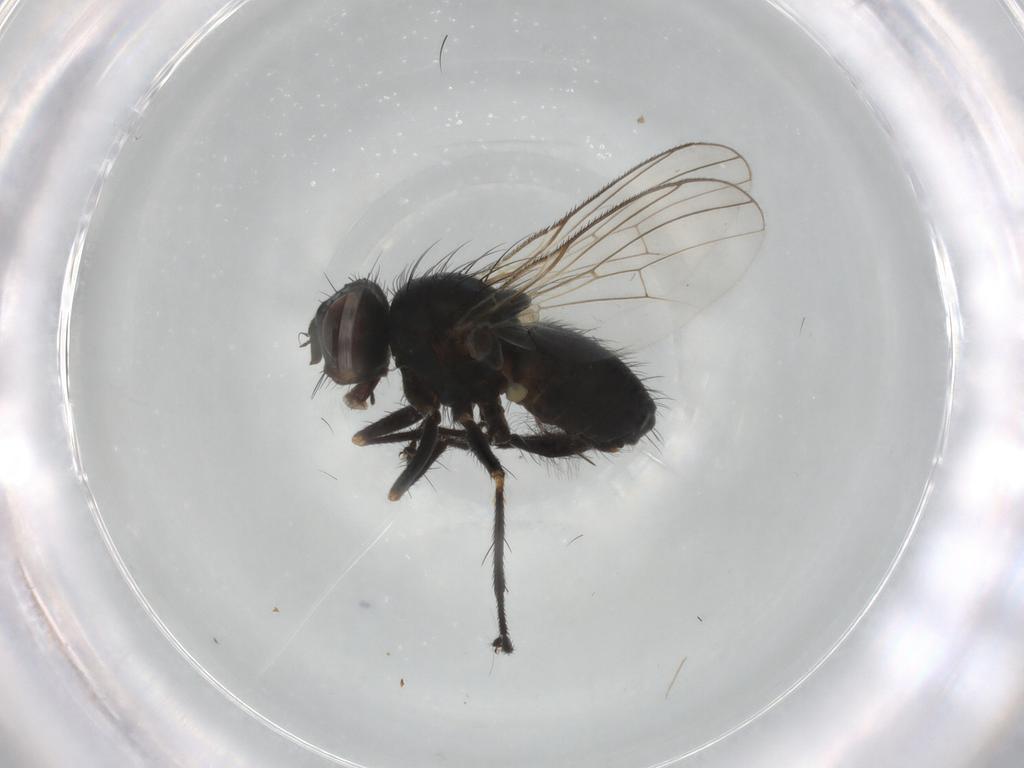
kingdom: Animalia
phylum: Arthropoda
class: Insecta
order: Diptera
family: Muscidae
